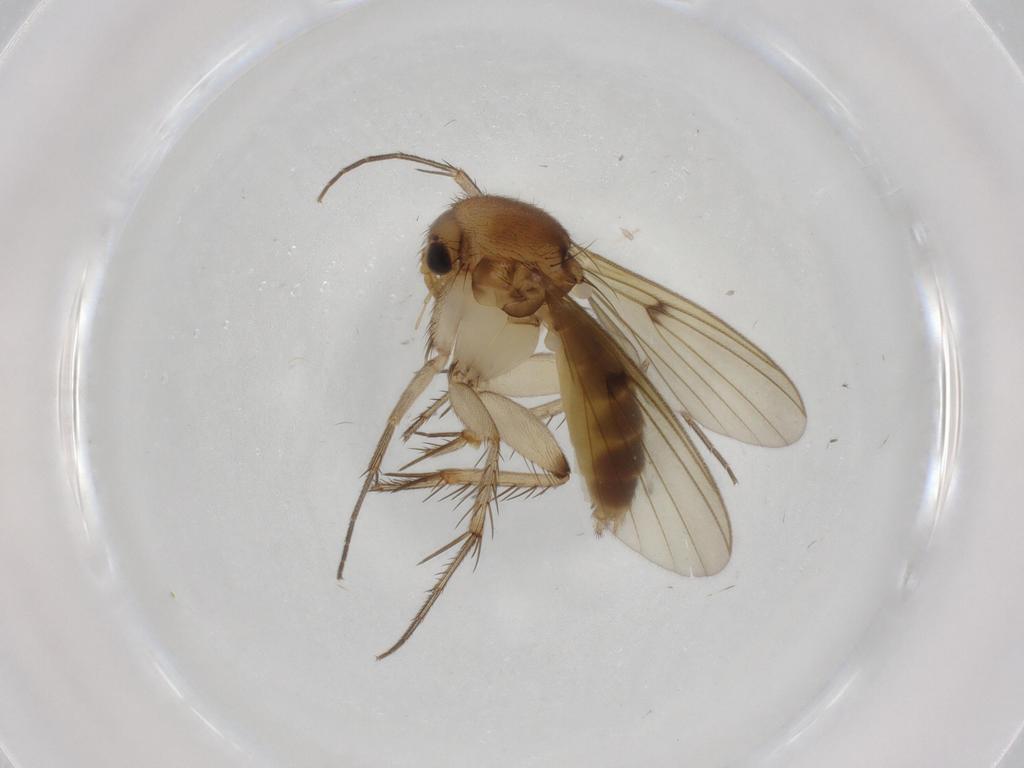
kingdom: Animalia
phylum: Arthropoda
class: Insecta
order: Diptera
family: Mycetophilidae
